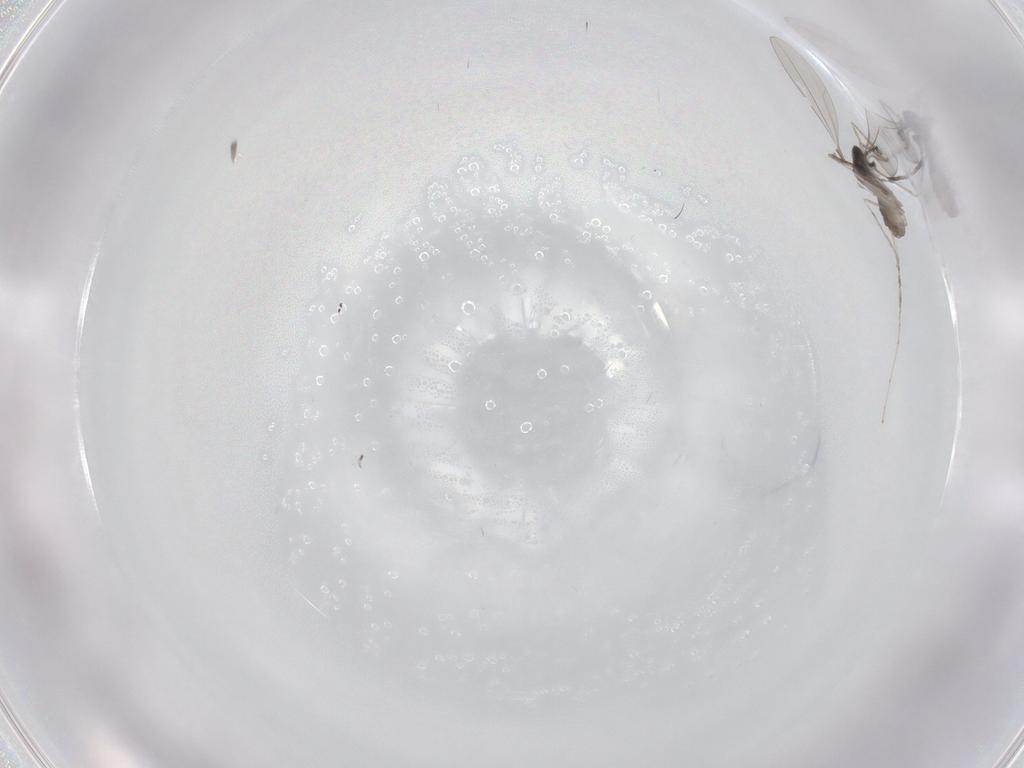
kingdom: Animalia
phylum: Arthropoda
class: Insecta
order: Diptera
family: Cecidomyiidae
